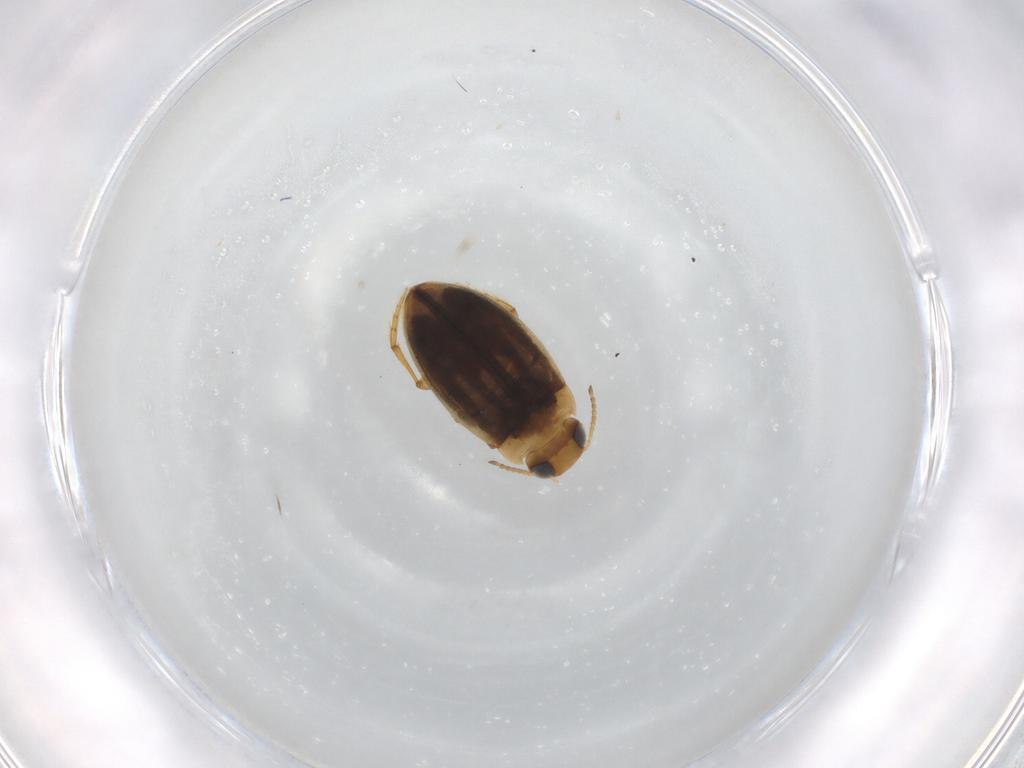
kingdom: Animalia
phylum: Arthropoda
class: Insecta
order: Coleoptera
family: Dytiscidae
